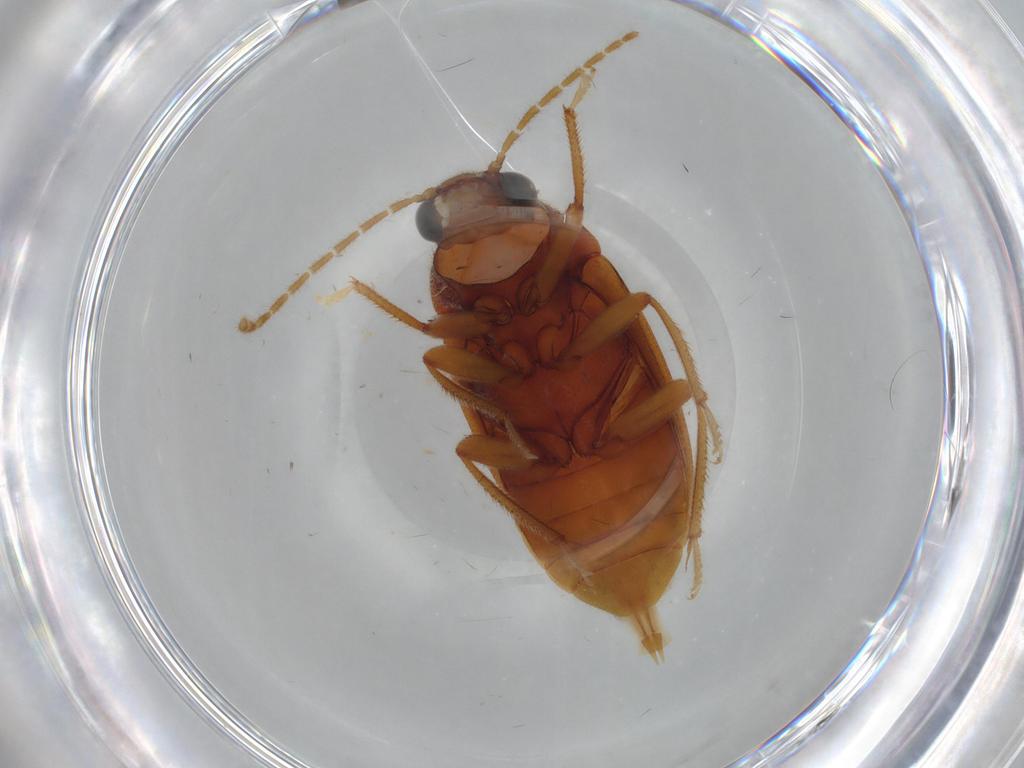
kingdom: Animalia
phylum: Arthropoda
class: Insecta
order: Coleoptera
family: Ptilodactylidae
